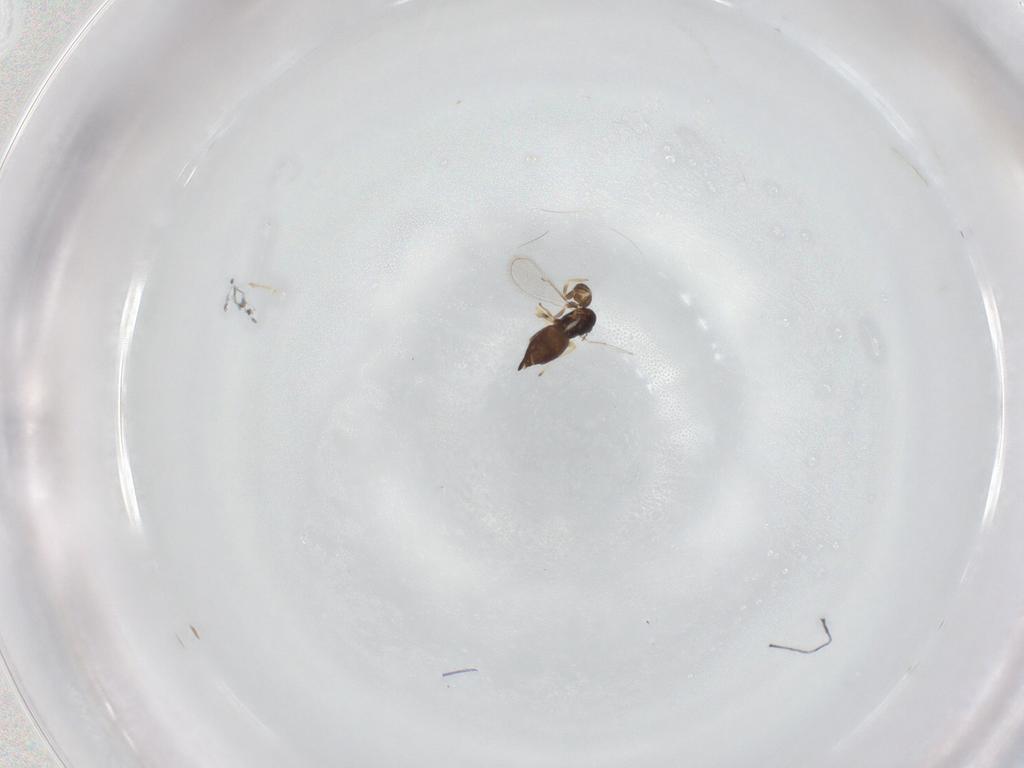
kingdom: Animalia
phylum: Arthropoda
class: Insecta
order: Hymenoptera
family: Eulophidae
